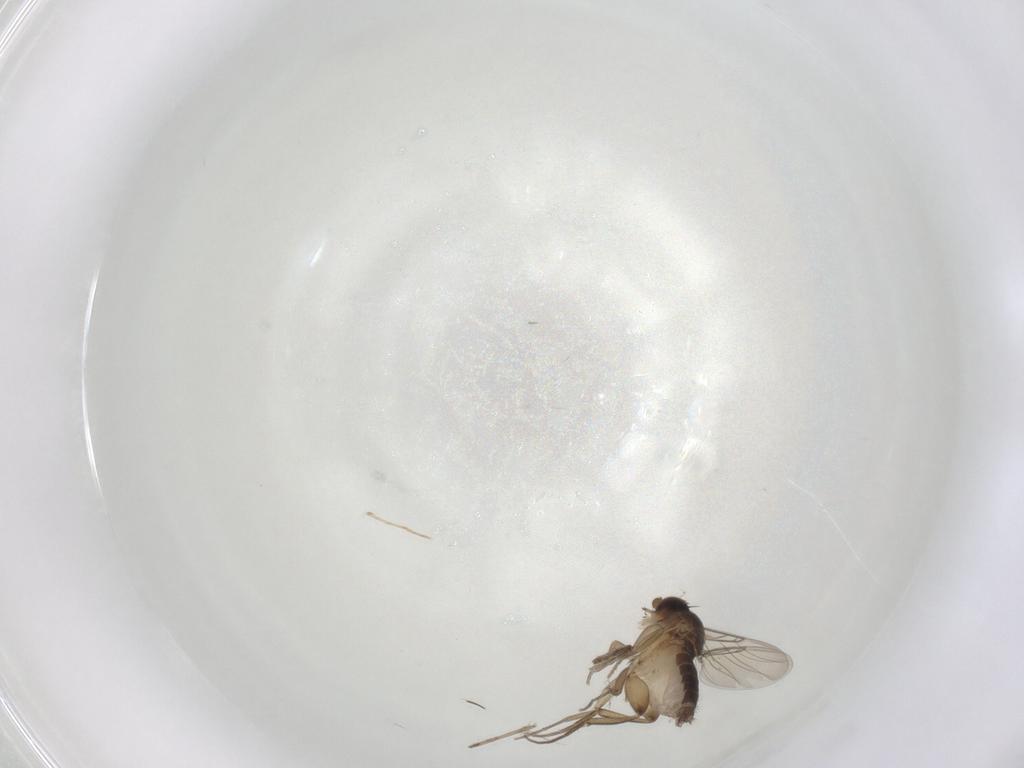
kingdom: Animalia
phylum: Arthropoda
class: Insecta
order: Diptera
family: Phoridae
